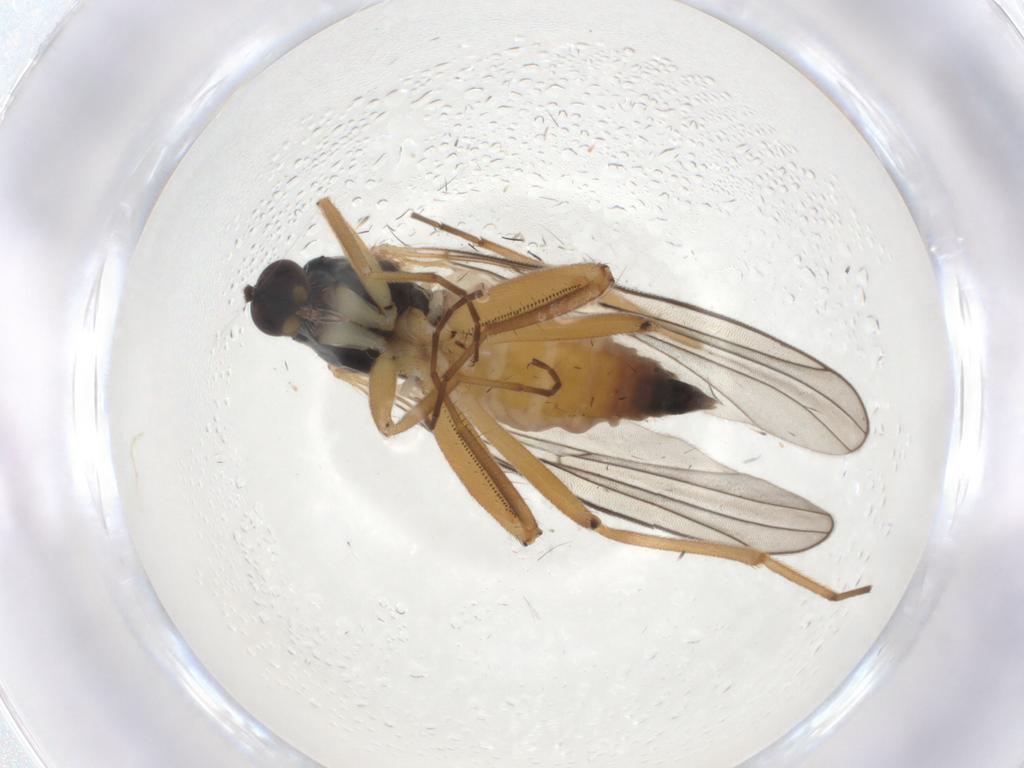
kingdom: Animalia
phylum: Arthropoda
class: Insecta
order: Diptera
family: Hybotidae
